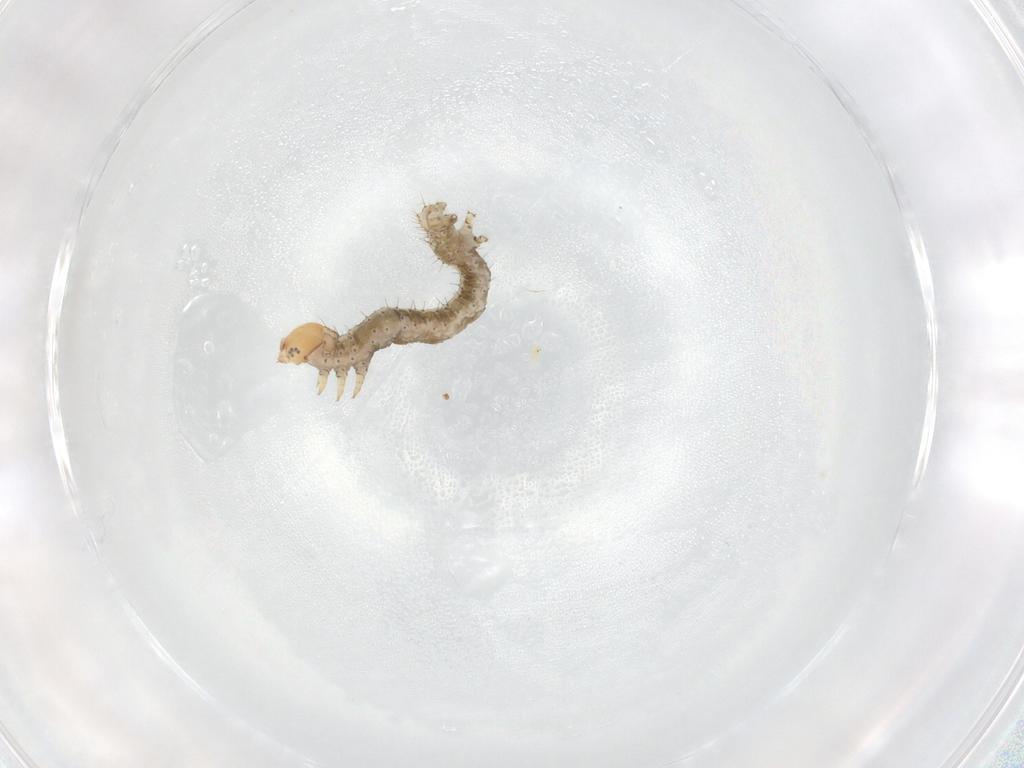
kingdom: Animalia
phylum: Arthropoda
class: Insecta
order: Lepidoptera
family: Geometridae
